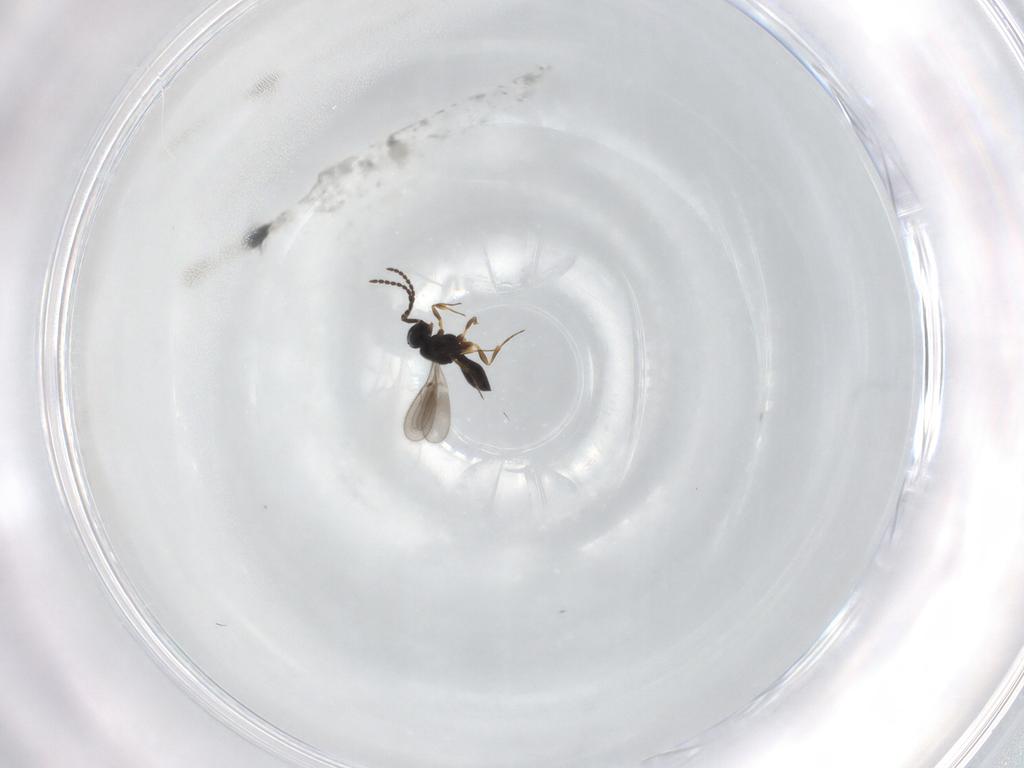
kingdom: Animalia
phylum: Arthropoda
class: Insecta
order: Hymenoptera
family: Scelionidae
